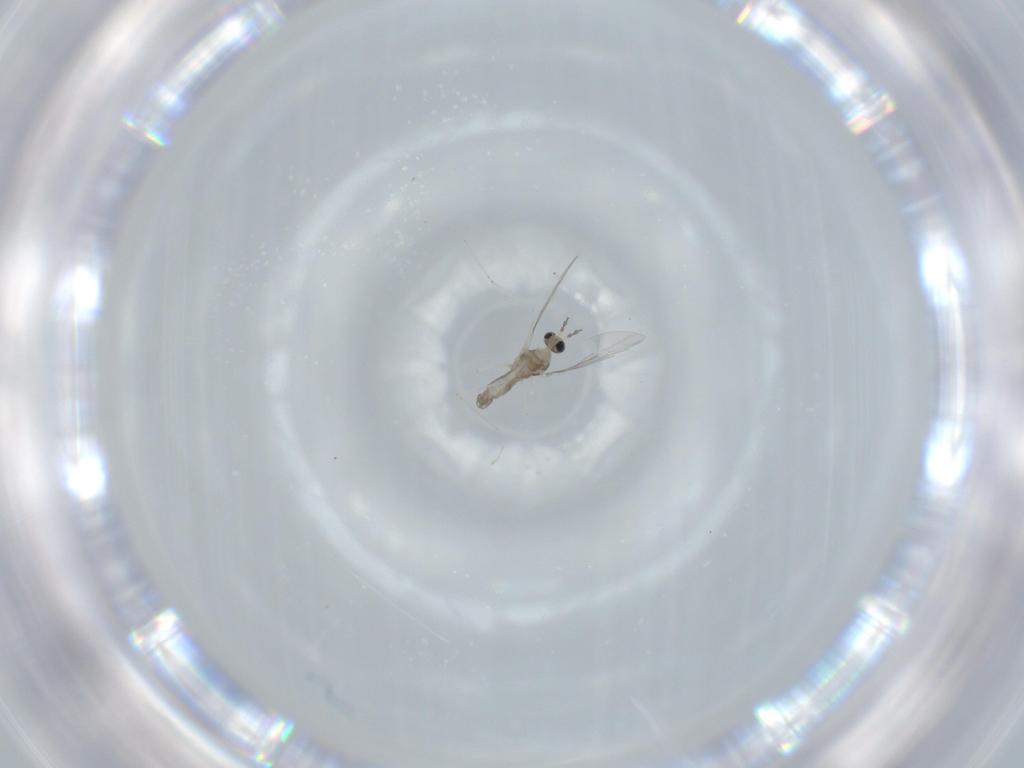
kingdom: Animalia
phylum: Arthropoda
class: Insecta
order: Diptera
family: Cecidomyiidae
